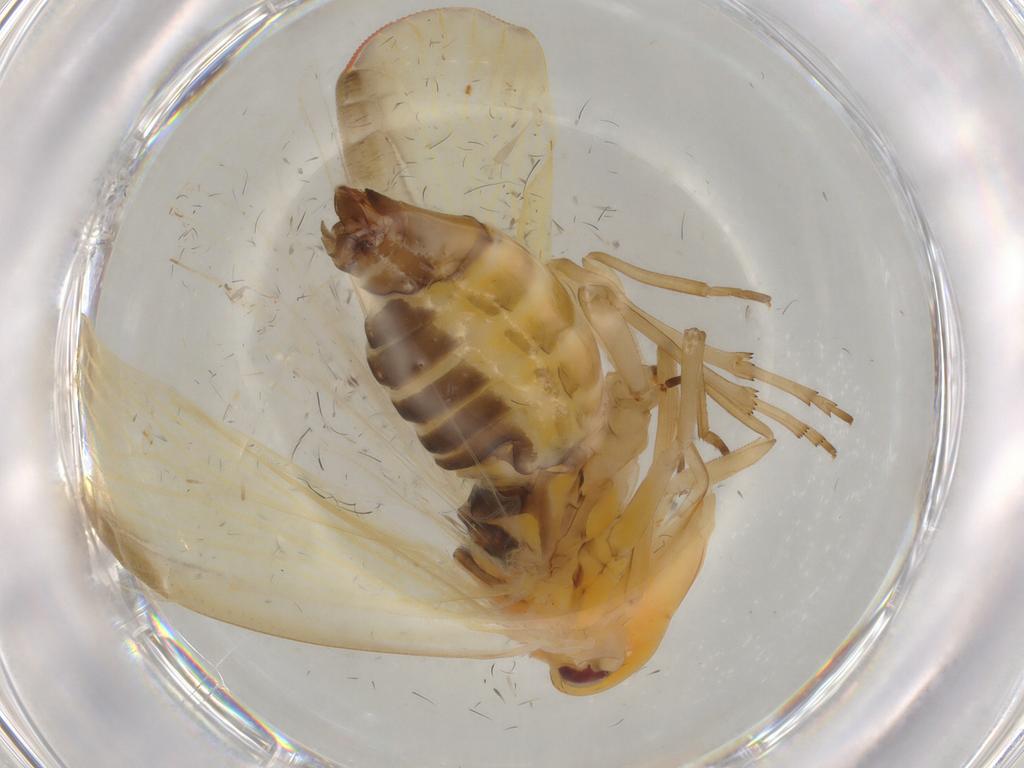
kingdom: Animalia
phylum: Arthropoda
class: Insecta
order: Hemiptera
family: Derbidae
